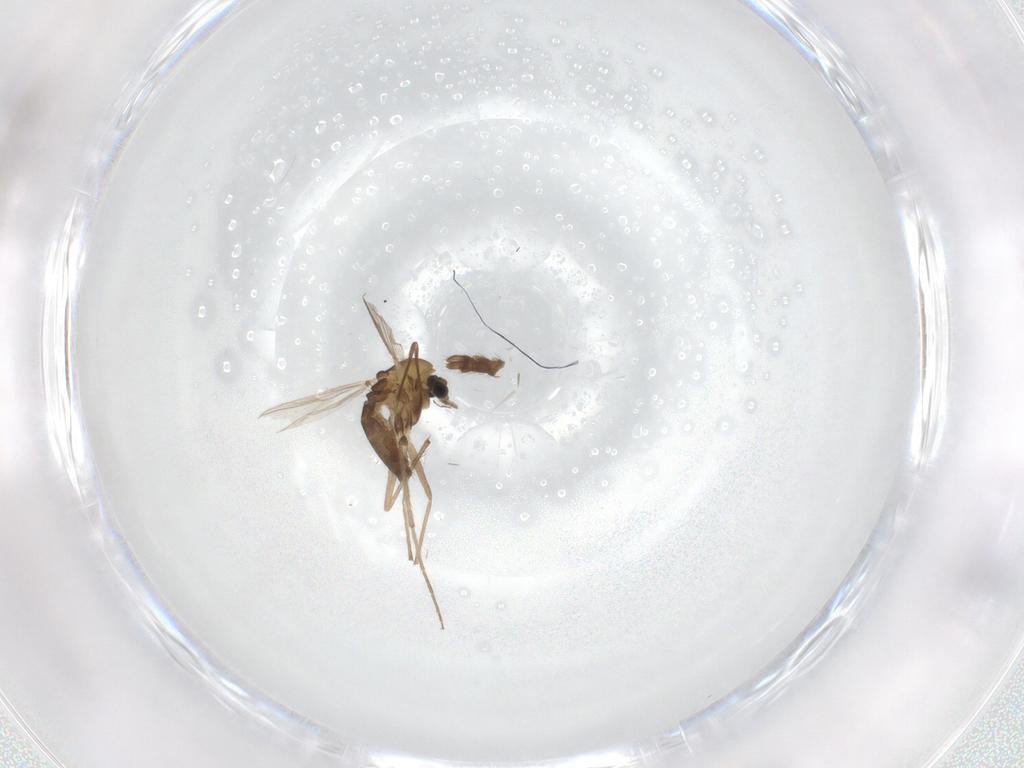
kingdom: Animalia
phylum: Arthropoda
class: Insecta
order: Diptera
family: Chironomidae
